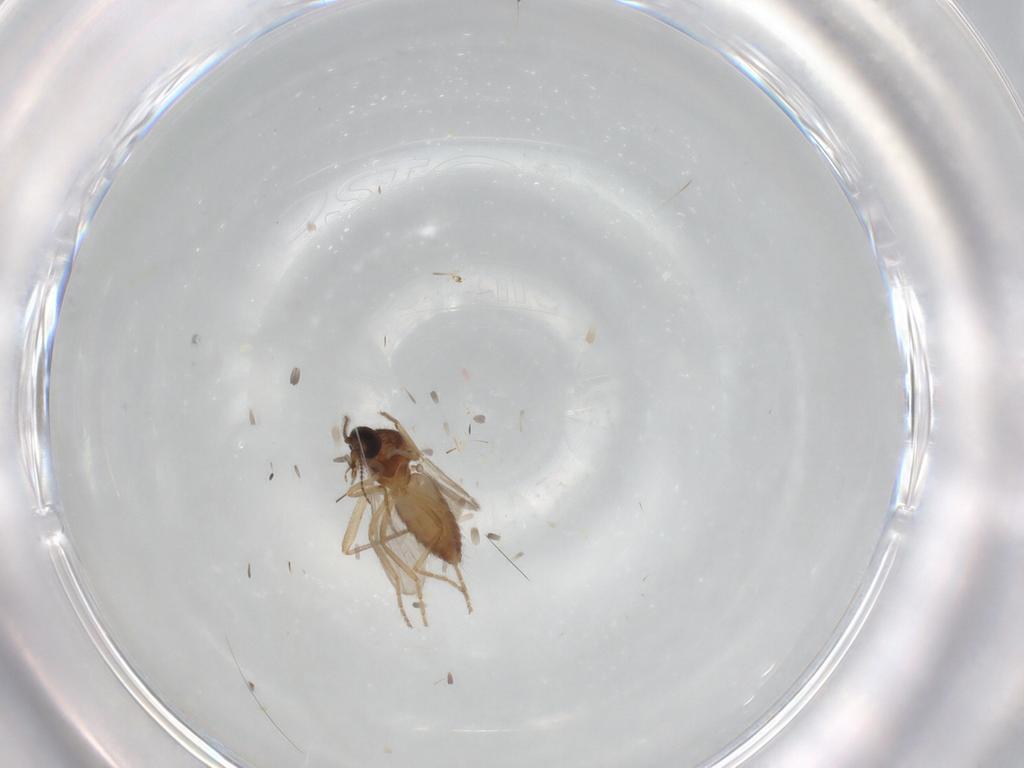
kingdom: Animalia
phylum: Arthropoda
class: Insecta
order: Diptera
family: Ceratopogonidae
